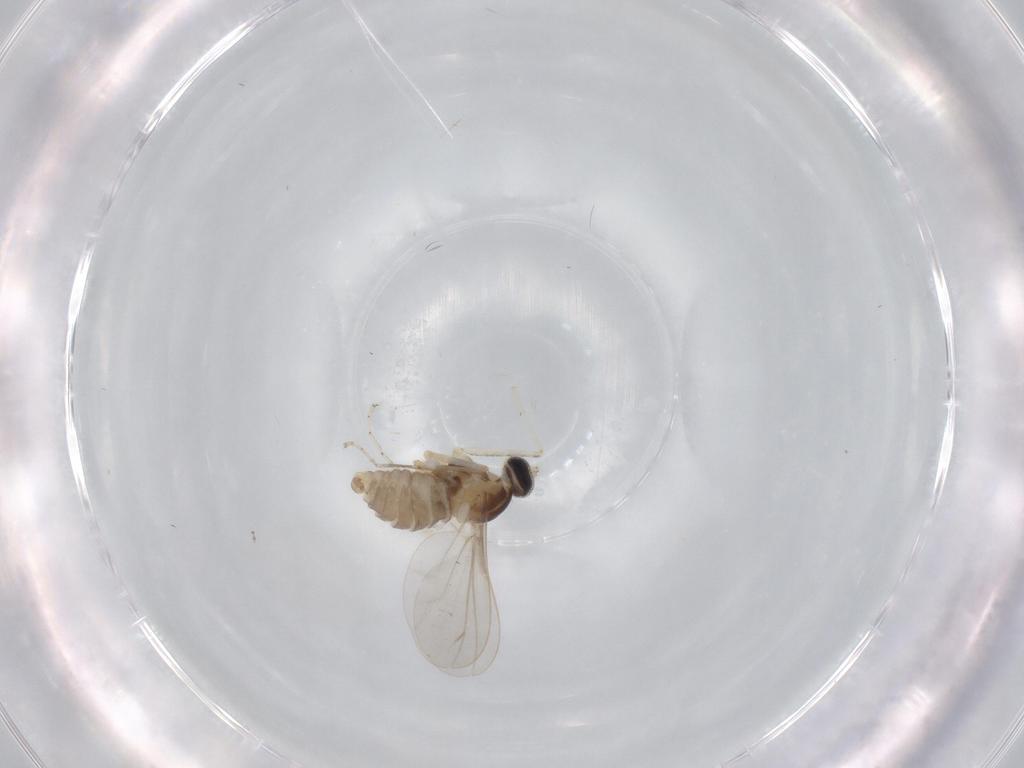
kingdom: Animalia
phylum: Arthropoda
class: Insecta
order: Diptera
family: Cecidomyiidae
